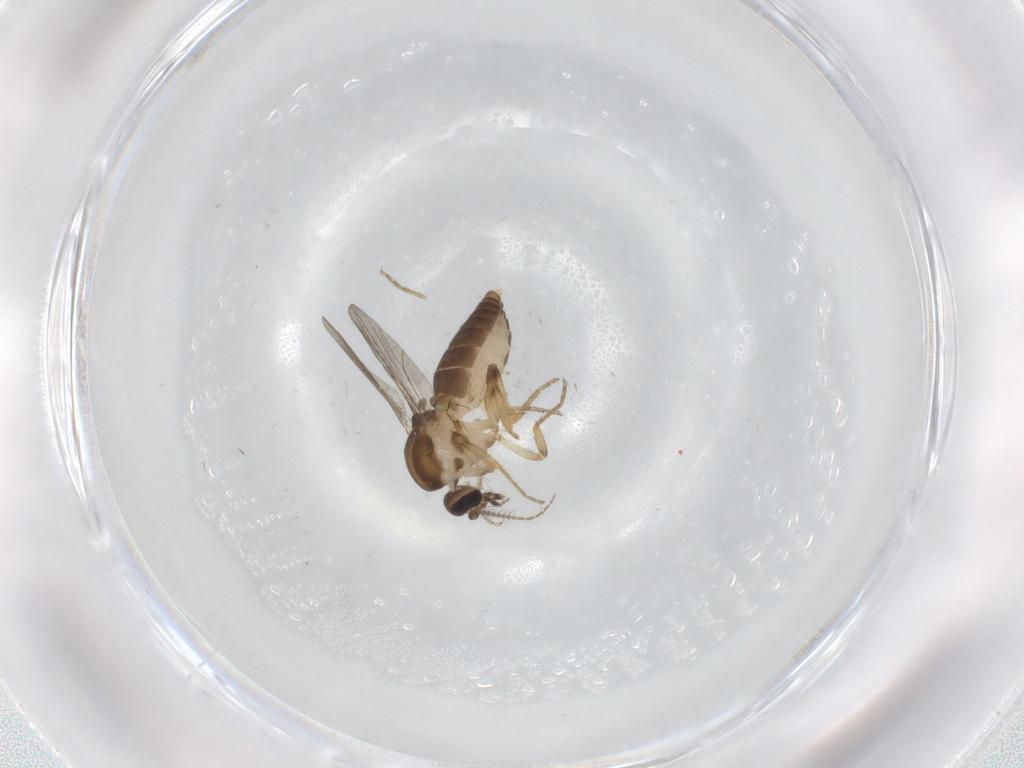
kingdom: Animalia
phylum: Arthropoda
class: Insecta
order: Diptera
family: Ceratopogonidae
